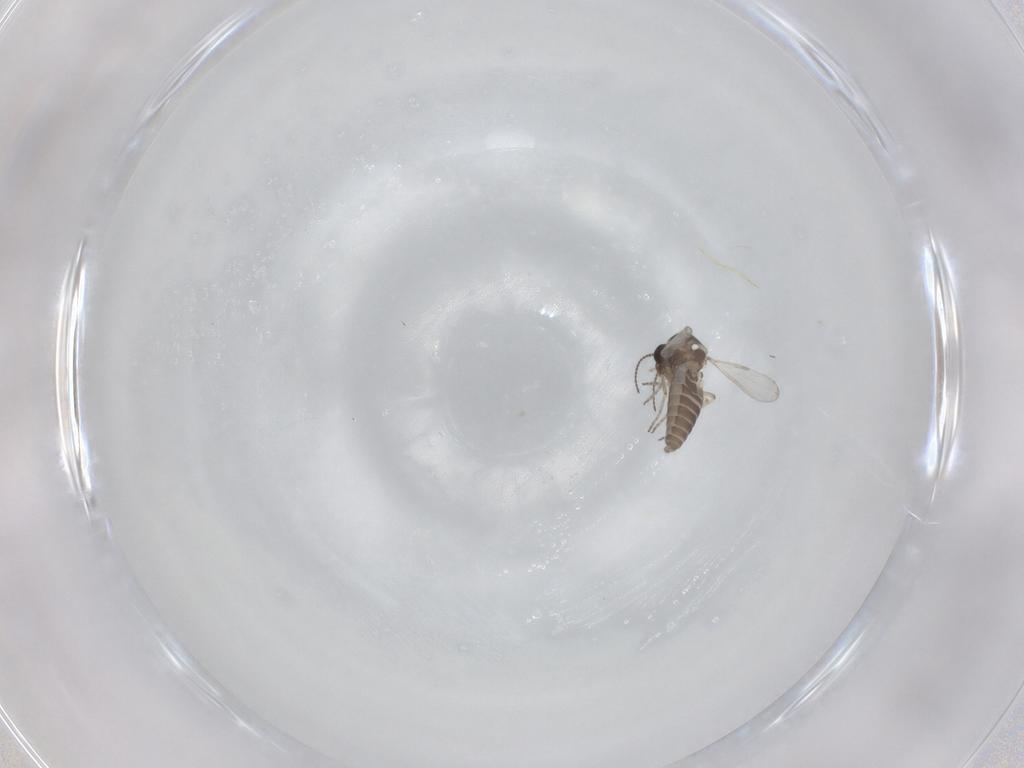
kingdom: Animalia
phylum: Arthropoda
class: Insecta
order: Diptera
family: Ceratopogonidae
